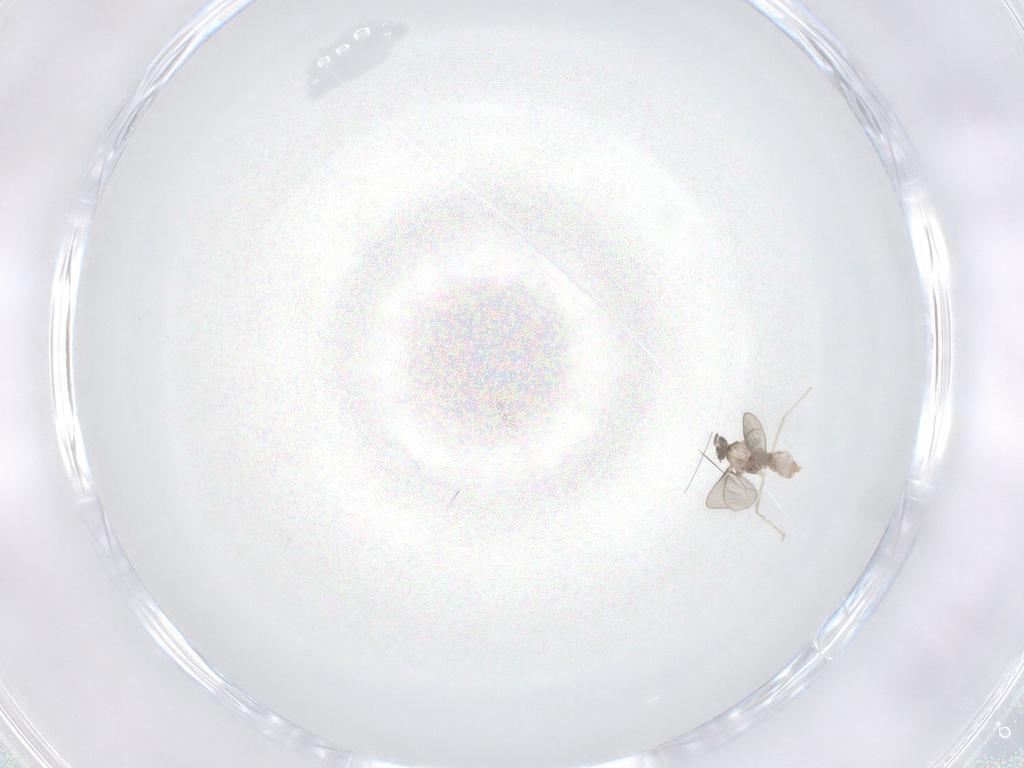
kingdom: Animalia
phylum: Arthropoda
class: Insecta
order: Diptera
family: Cecidomyiidae
